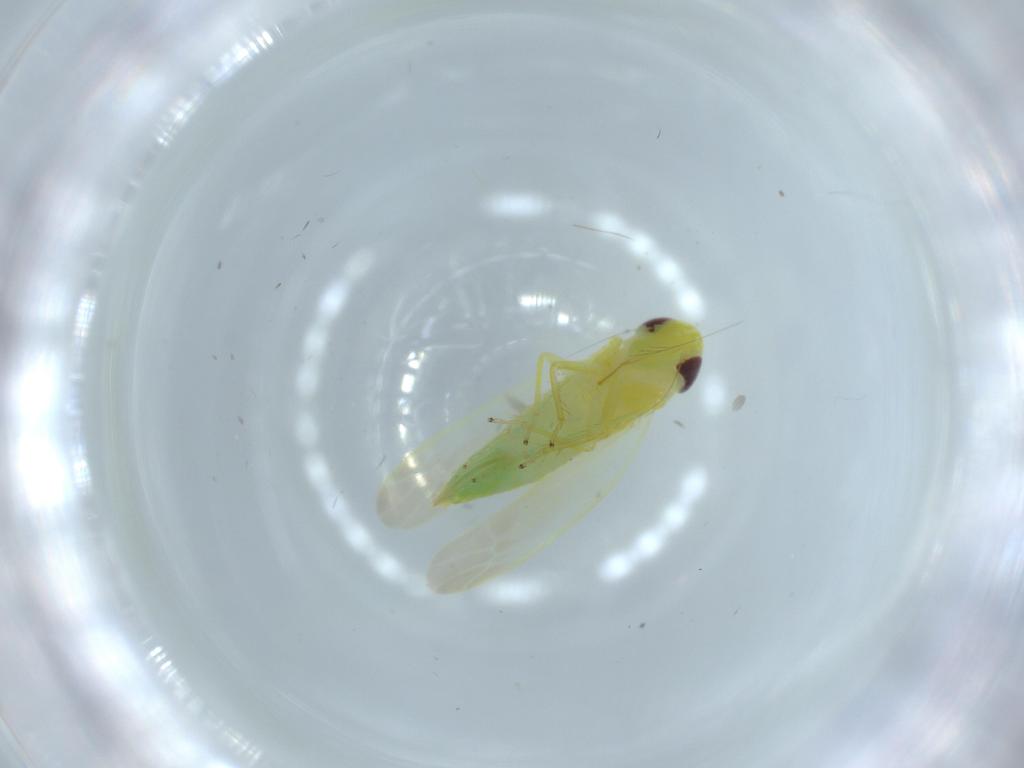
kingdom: Animalia
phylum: Arthropoda
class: Insecta
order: Hemiptera
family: Cicadellidae
